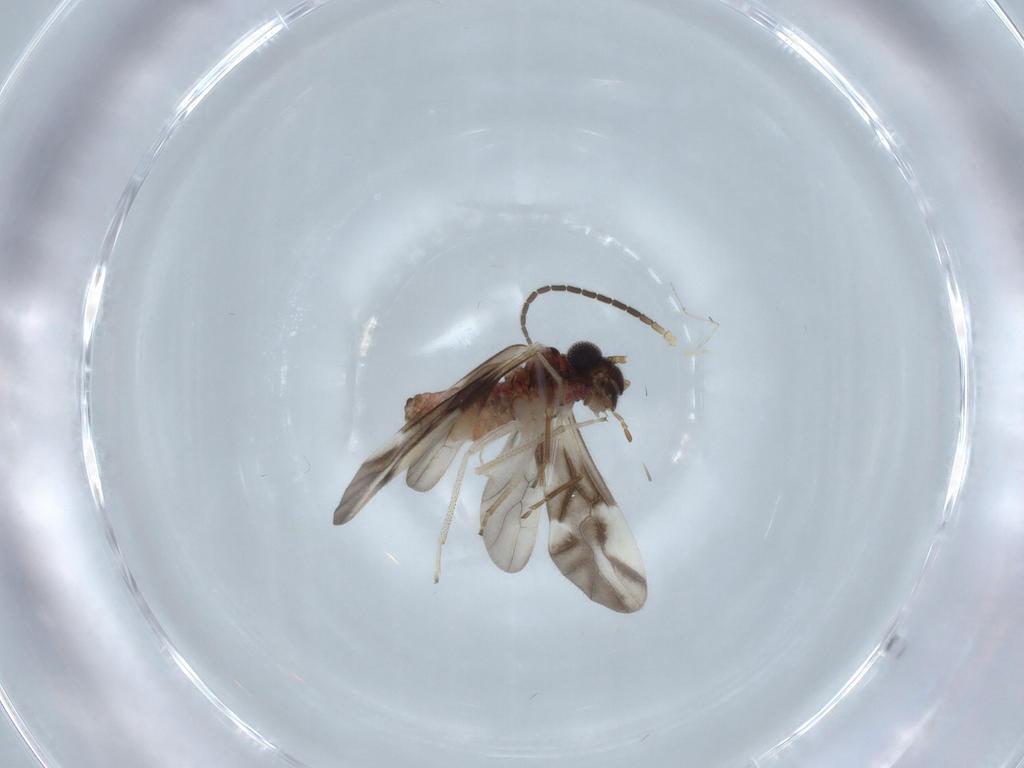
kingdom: Animalia
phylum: Arthropoda
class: Insecta
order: Psocodea
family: Caeciliusidae
